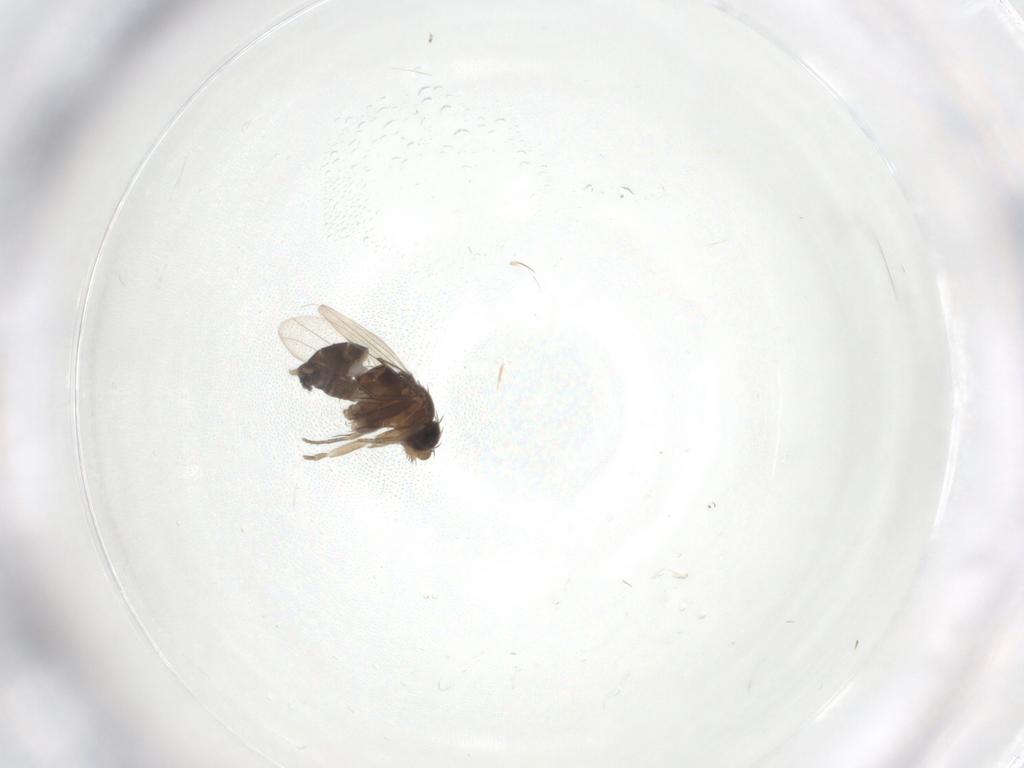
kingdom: Animalia
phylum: Arthropoda
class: Insecta
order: Diptera
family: Phoridae
